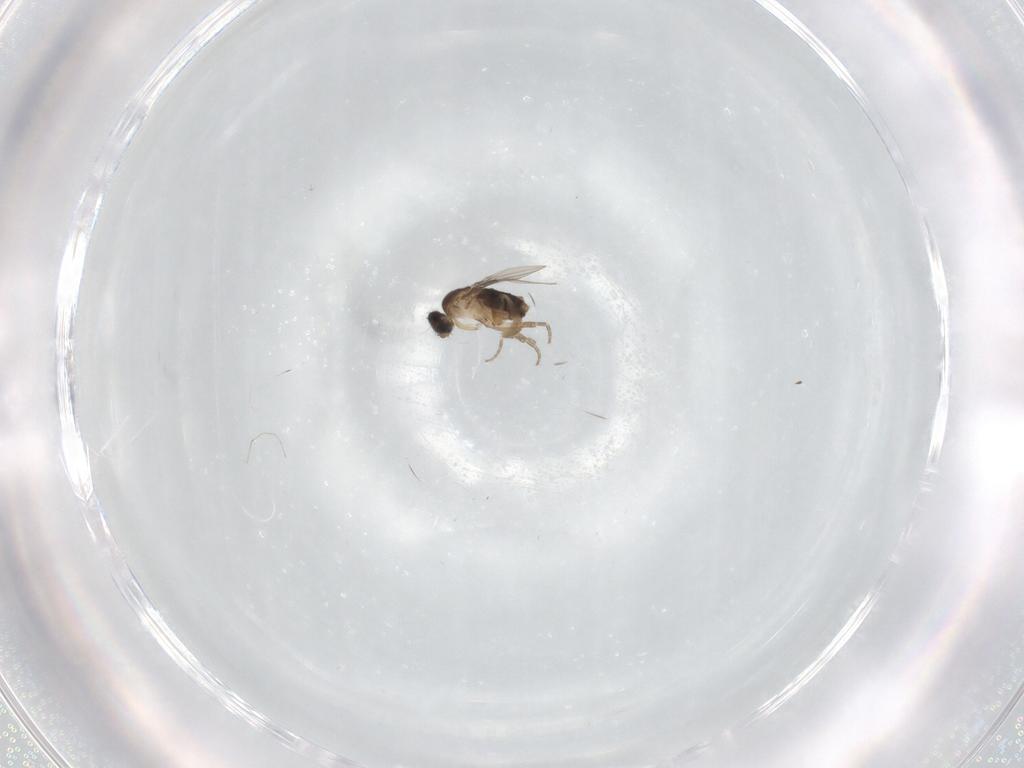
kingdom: Animalia
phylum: Arthropoda
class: Insecta
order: Diptera
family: Phoridae
